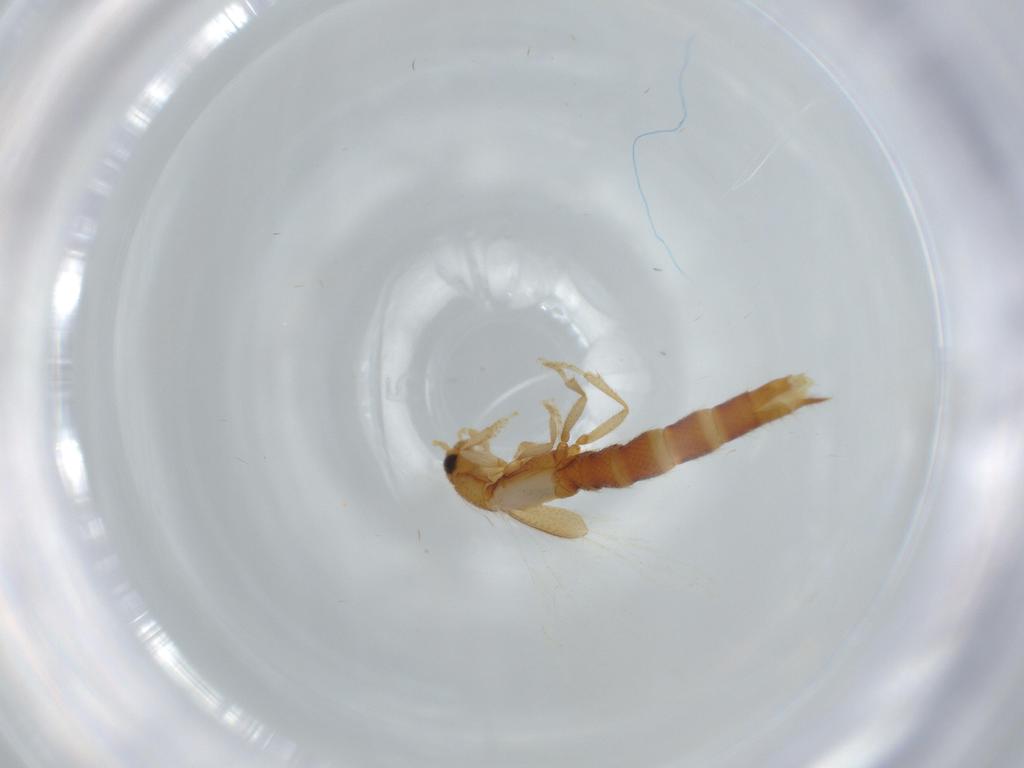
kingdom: Animalia
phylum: Arthropoda
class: Insecta
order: Coleoptera
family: Staphylinidae
